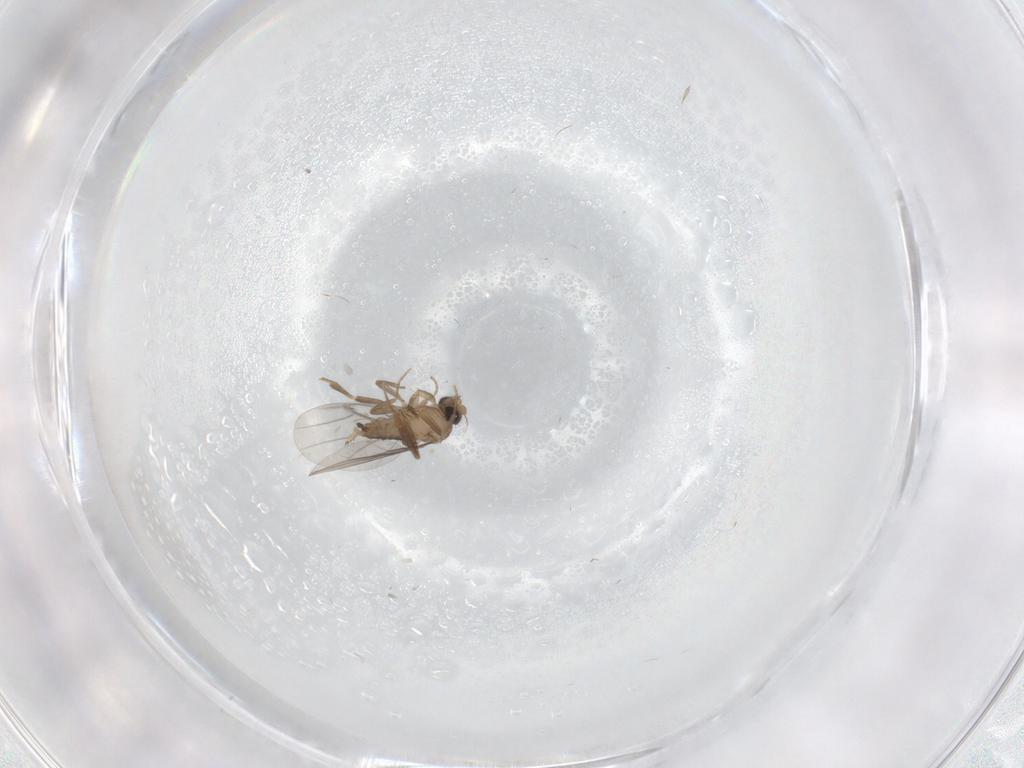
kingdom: Animalia
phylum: Arthropoda
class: Insecta
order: Diptera
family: Phoridae
